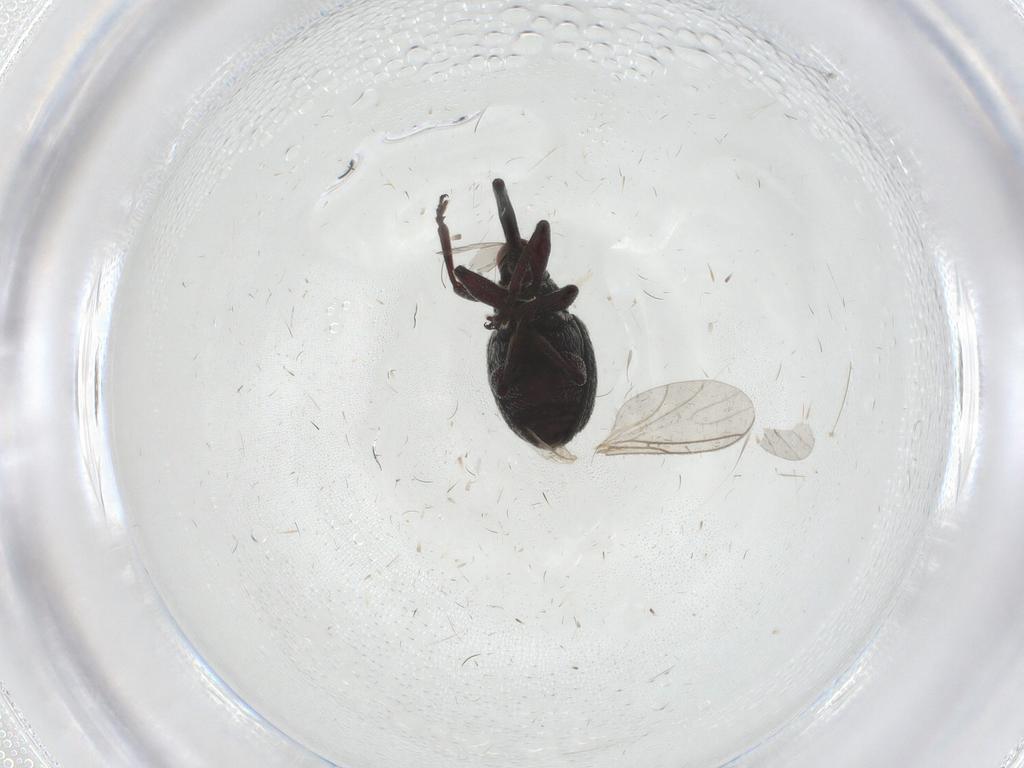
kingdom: Animalia
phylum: Arthropoda
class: Insecta
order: Coleoptera
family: Brentidae
